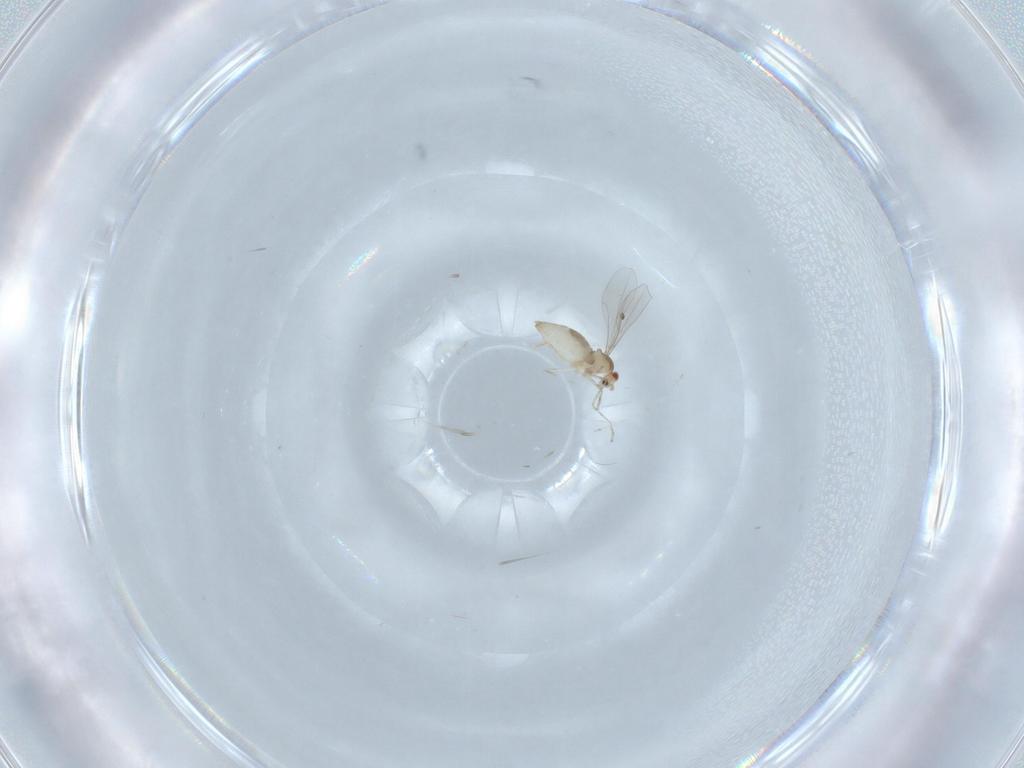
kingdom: Animalia
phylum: Arthropoda
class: Insecta
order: Diptera
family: Cecidomyiidae
